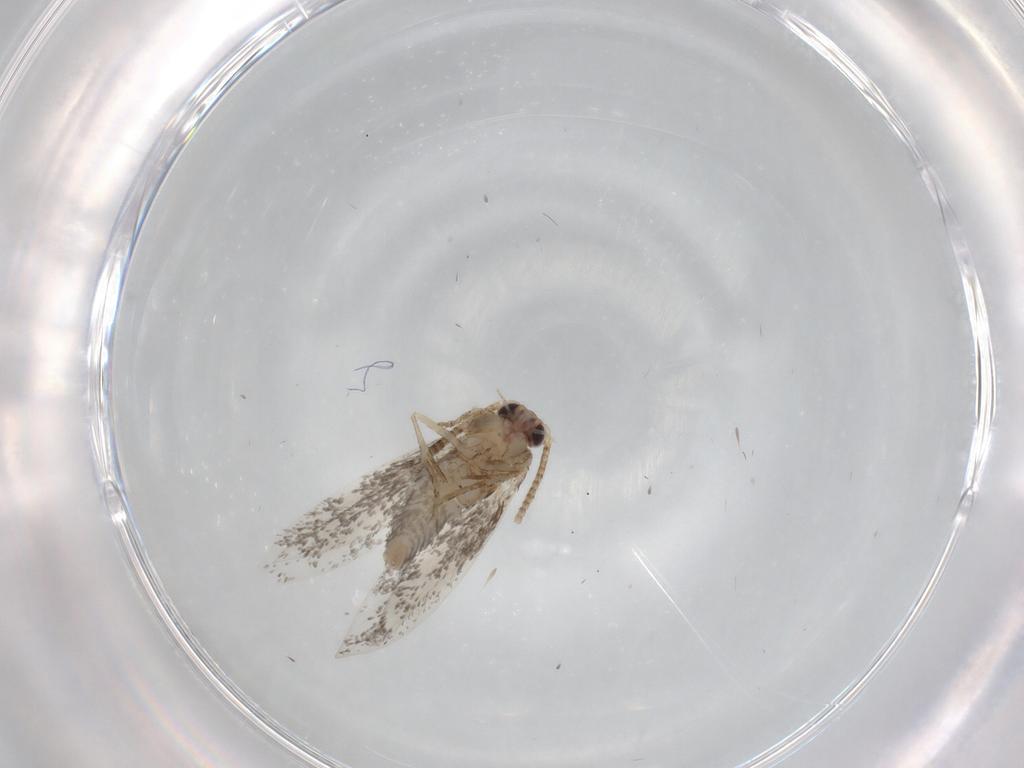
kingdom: Animalia
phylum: Arthropoda
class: Insecta
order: Lepidoptera
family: Tineidae
